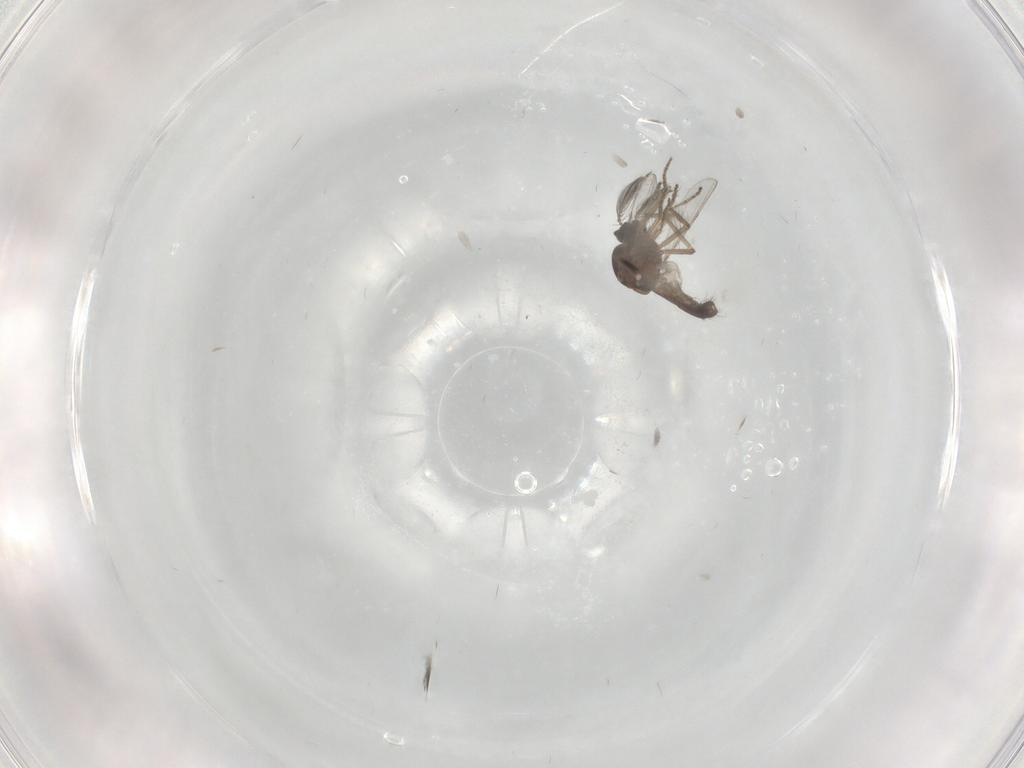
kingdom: Animalia
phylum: Arthropoda
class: Insecta
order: Diptera
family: Ceratopogonidae
